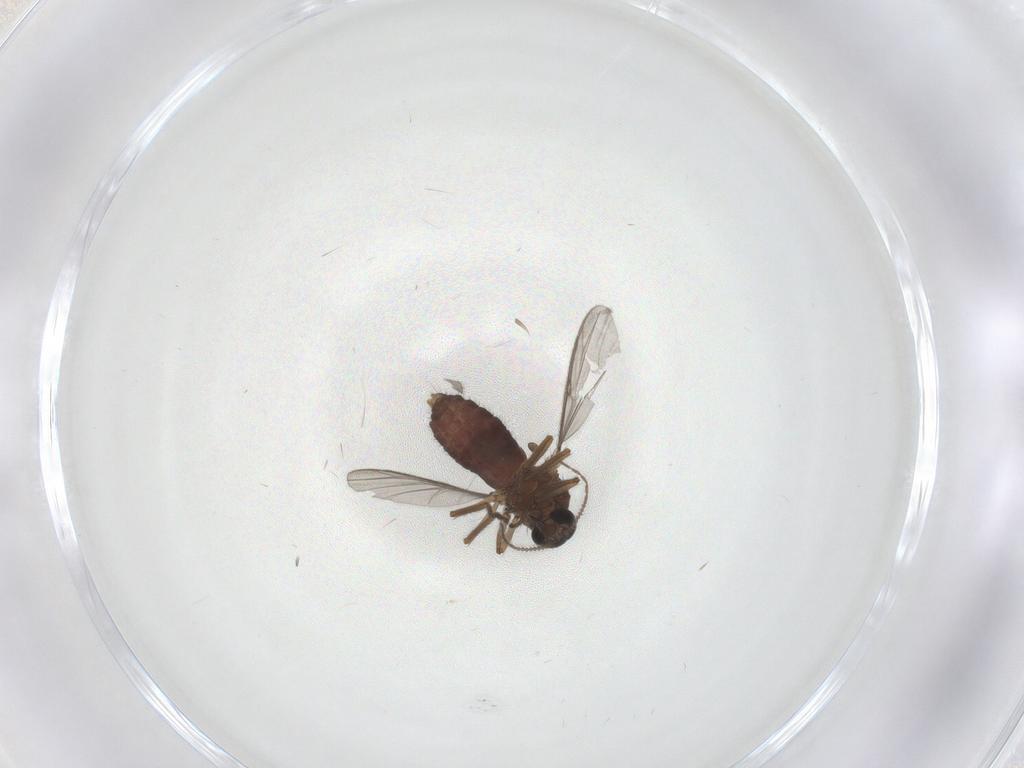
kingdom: Animalia
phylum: Arthropoda
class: Insecta
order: Diptera
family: Ceratopogonidae
